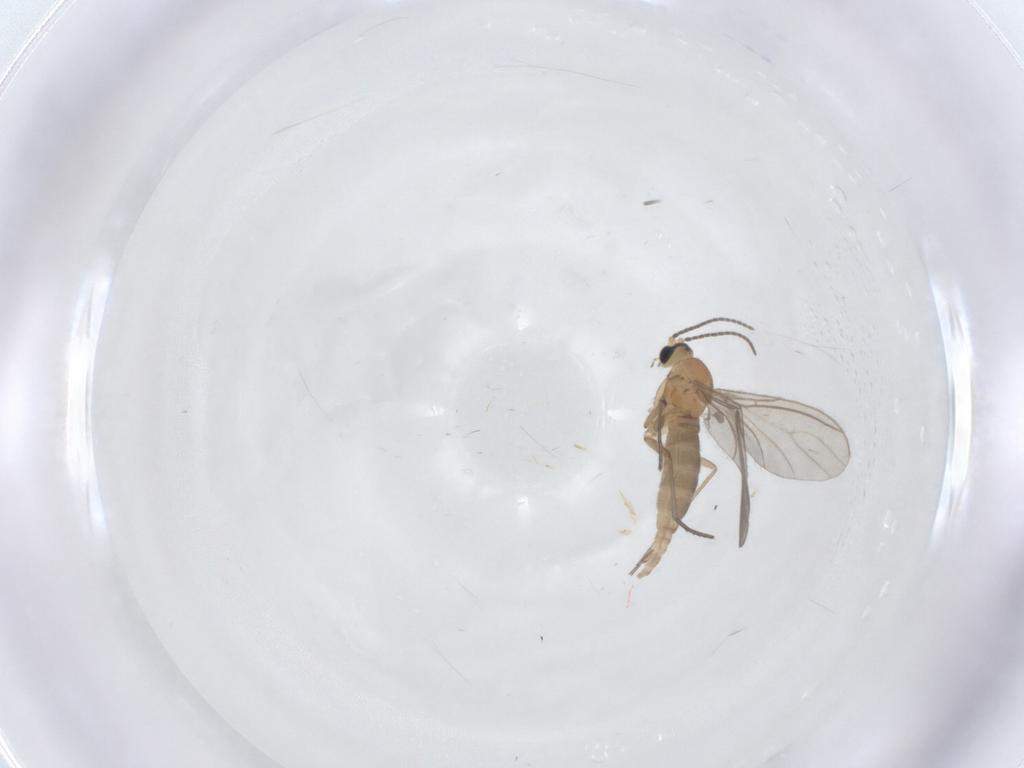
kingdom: Animalia
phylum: Arthropoda
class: Insecta
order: Diptera
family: Sciaridae
